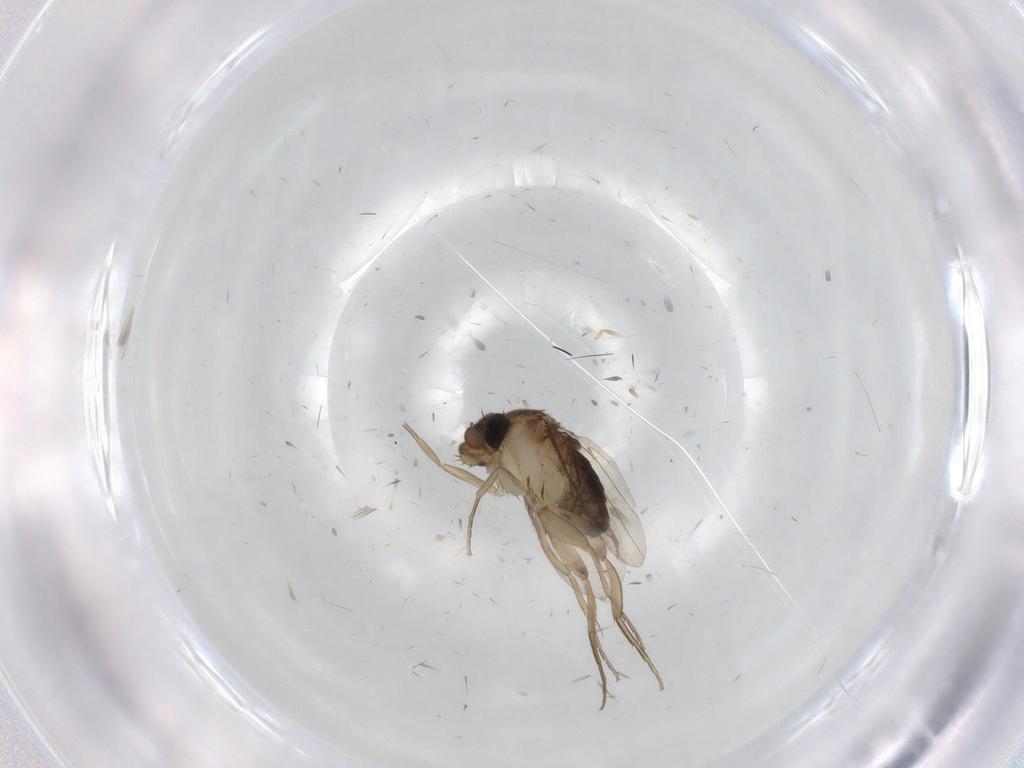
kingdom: Animalia
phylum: Arthropoda
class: Insecta
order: Diptera
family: Phoridae
